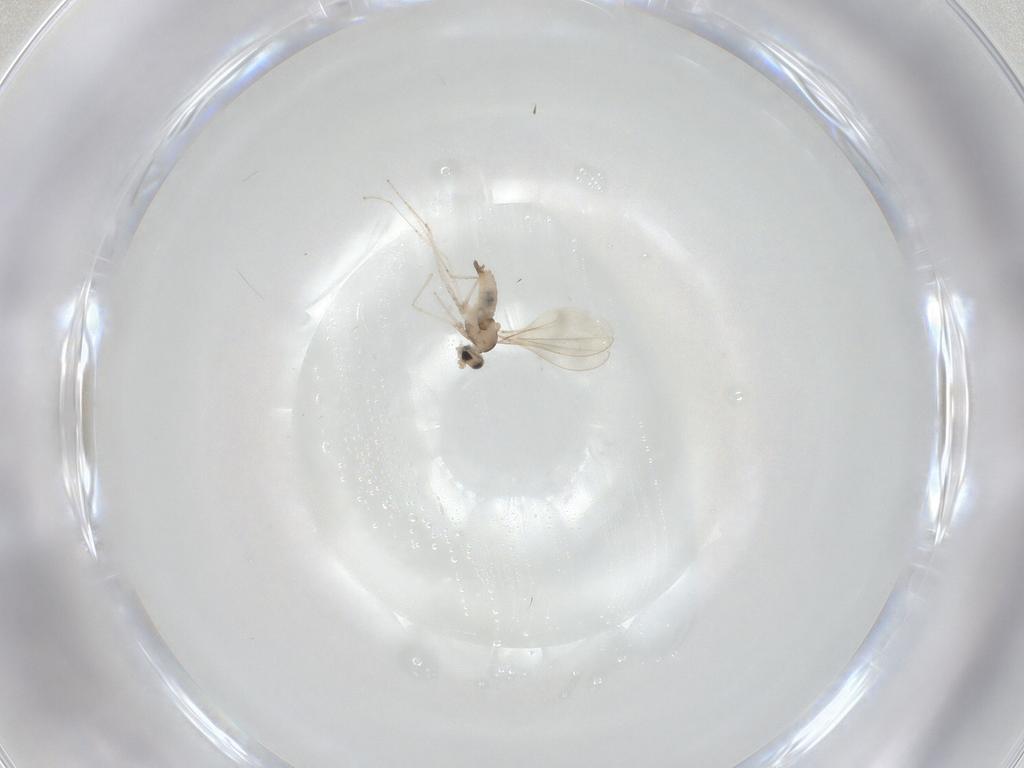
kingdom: Animalia
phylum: Arthropoda
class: Insecta
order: Diptera
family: Cecidomyiidae
